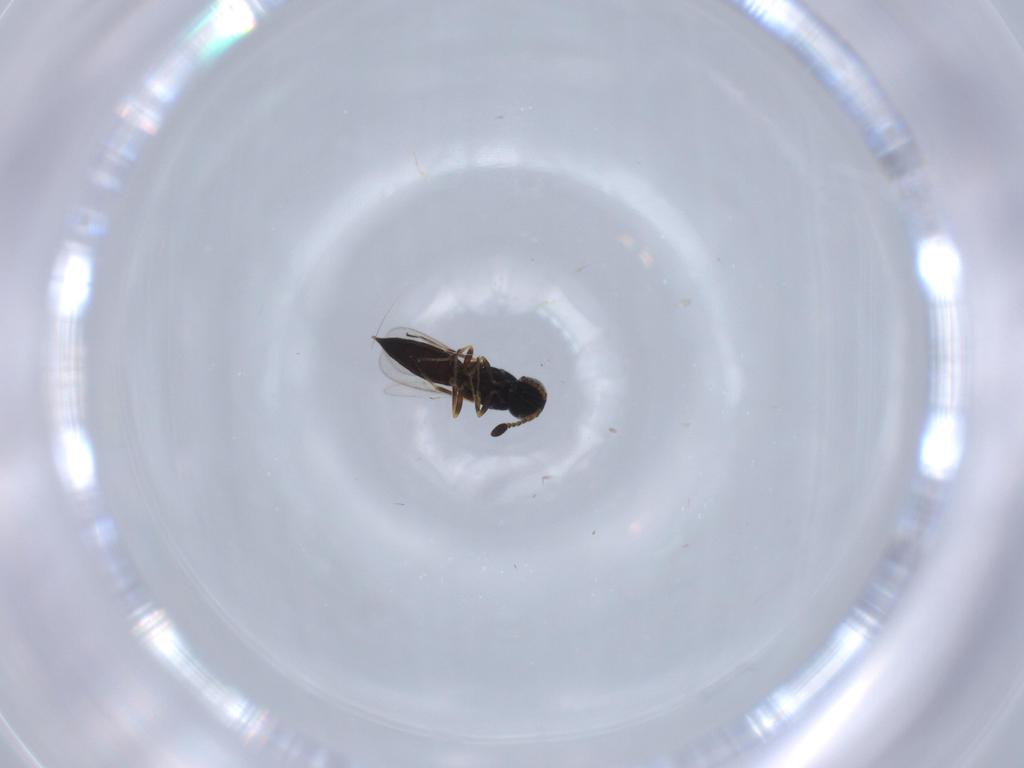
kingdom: Animalia
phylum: Arthropoda
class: Insecta
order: Hymenoptera
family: Scelionidae
